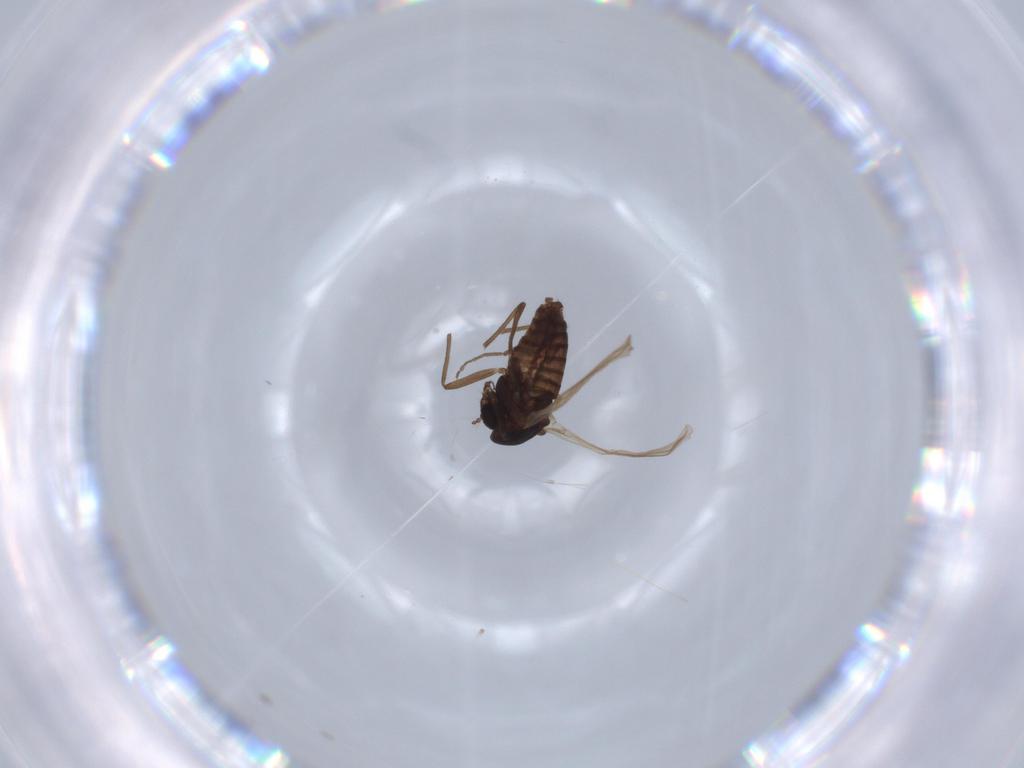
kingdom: Animalia
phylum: Arthropoda
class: Insecta
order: Diptera
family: Chironomidae
